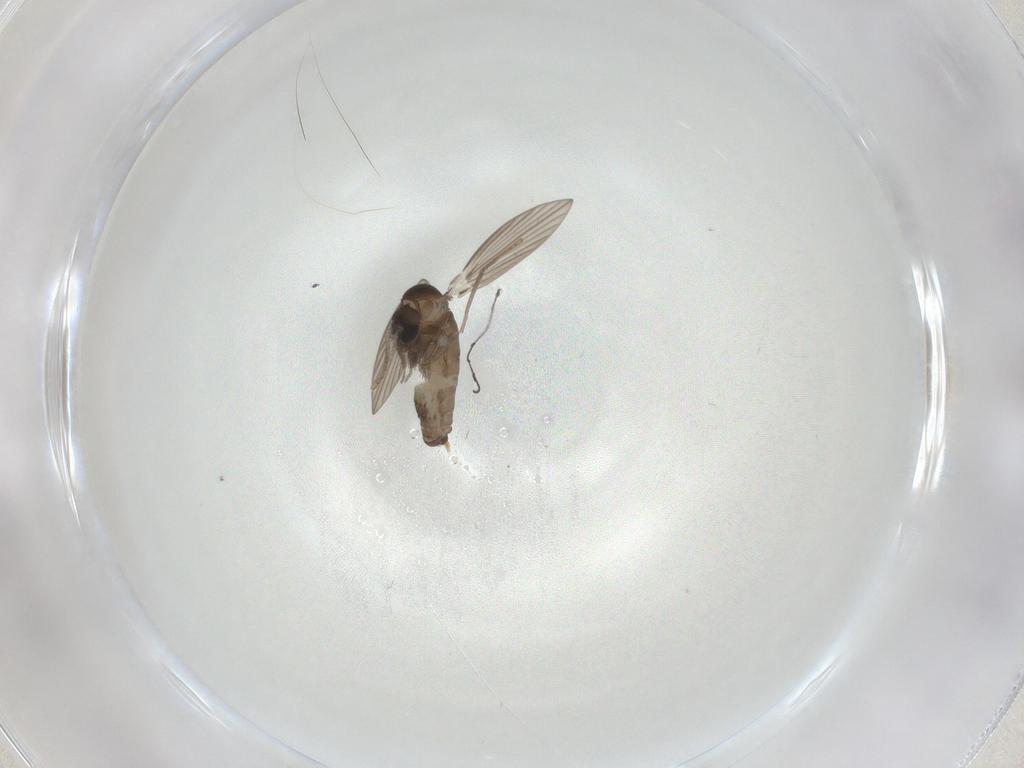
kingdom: Animalia
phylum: Arthropoda
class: Insecta
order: Diptera
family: Psychodidae
